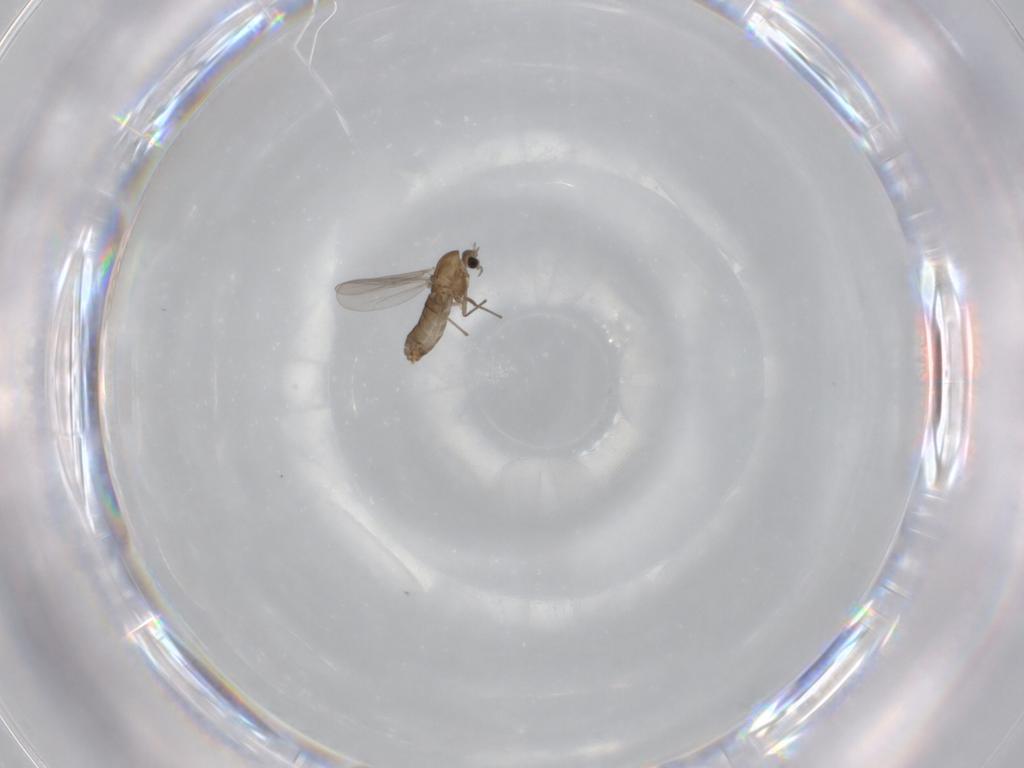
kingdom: Animalia
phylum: Arthropoda
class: Insecta
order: Diptera
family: Chironomidae
